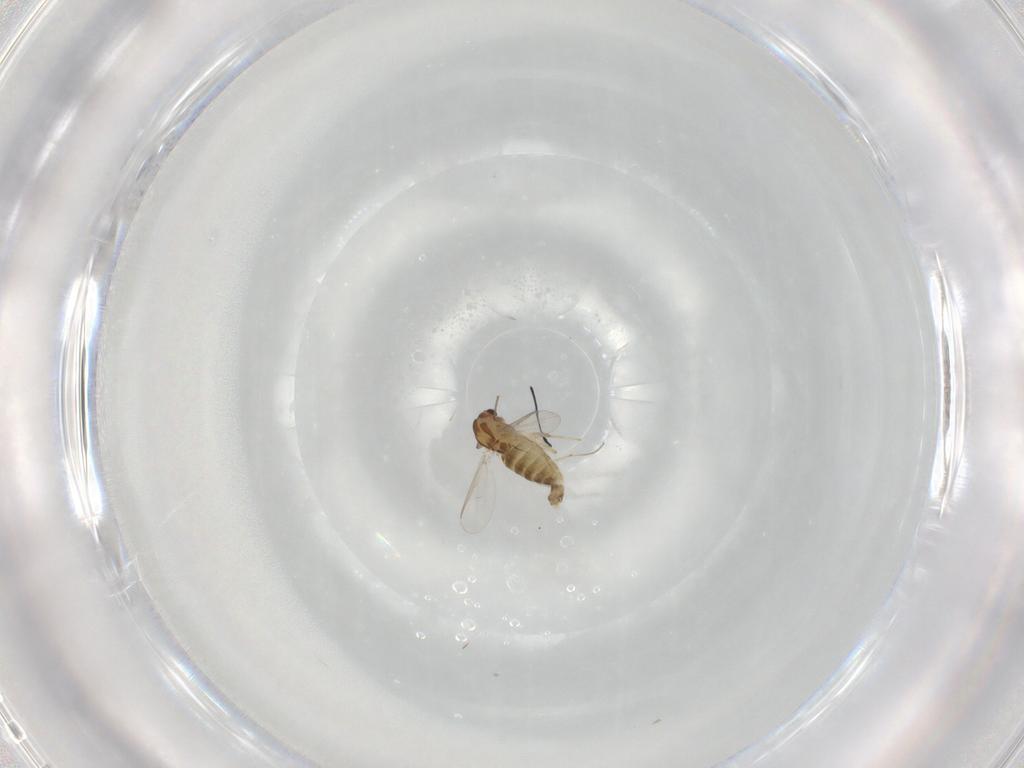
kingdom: Animalia
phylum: Arthropoda
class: Insecta
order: Diptera
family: Chironomidae
